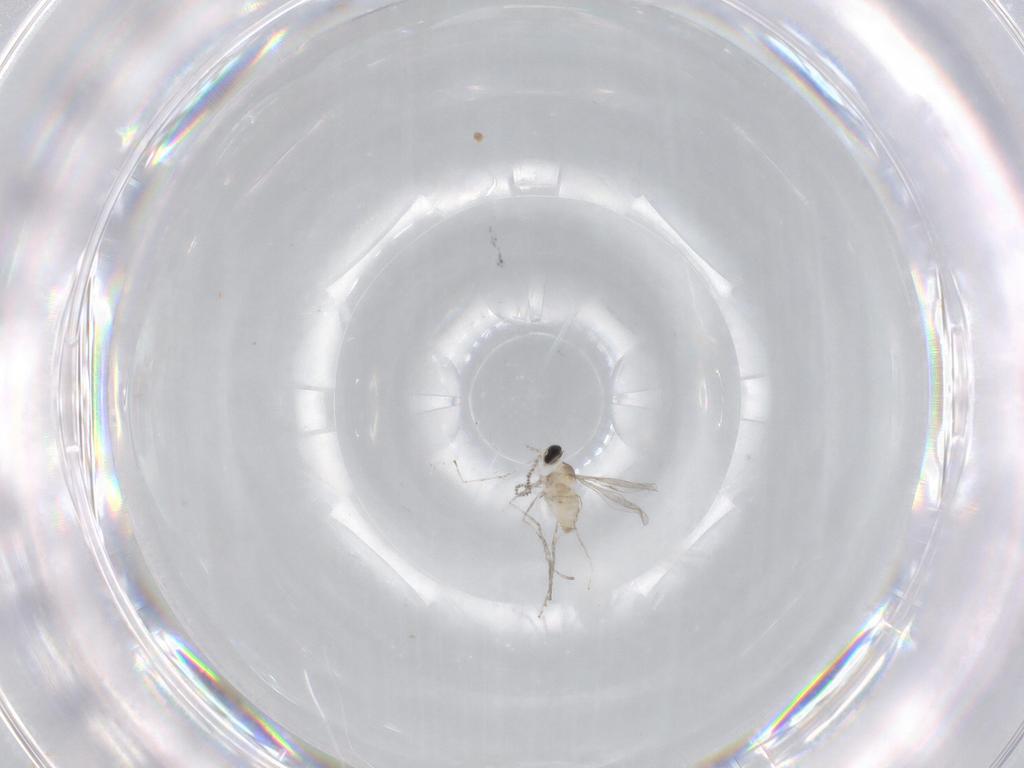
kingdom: Animalia
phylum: Arthropoda
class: Insecta
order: Diptera
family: Cecidomyiidae
